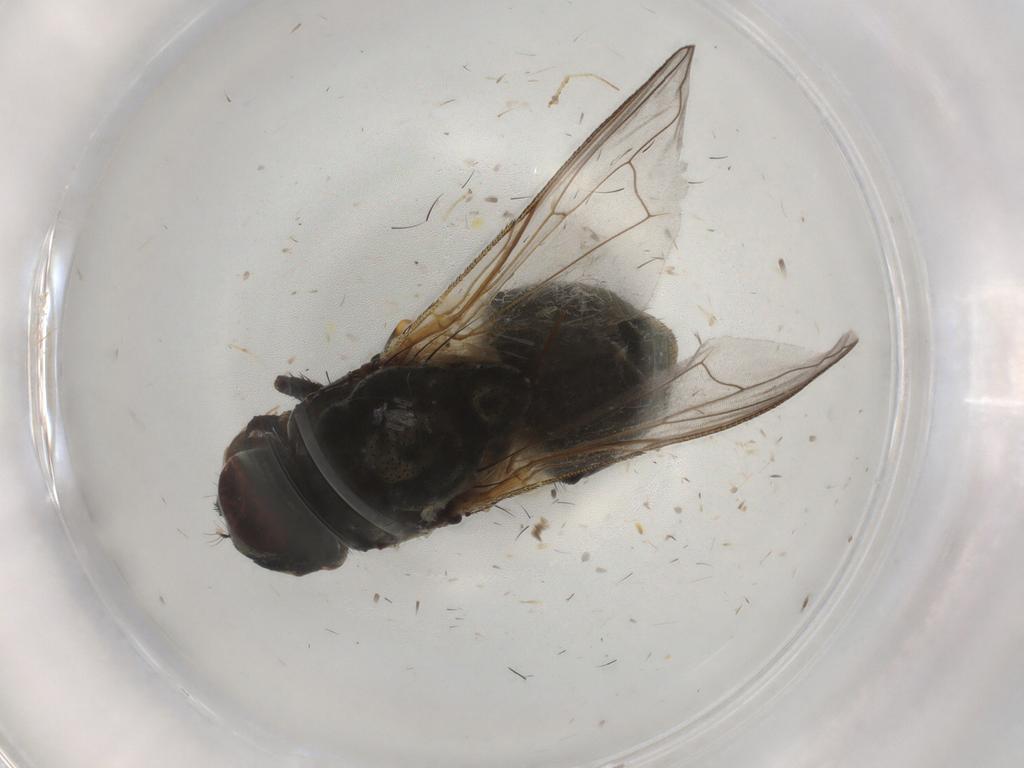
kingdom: Animalia
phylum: Arthropoda
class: Insecta
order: Diptera
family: Muscidae
